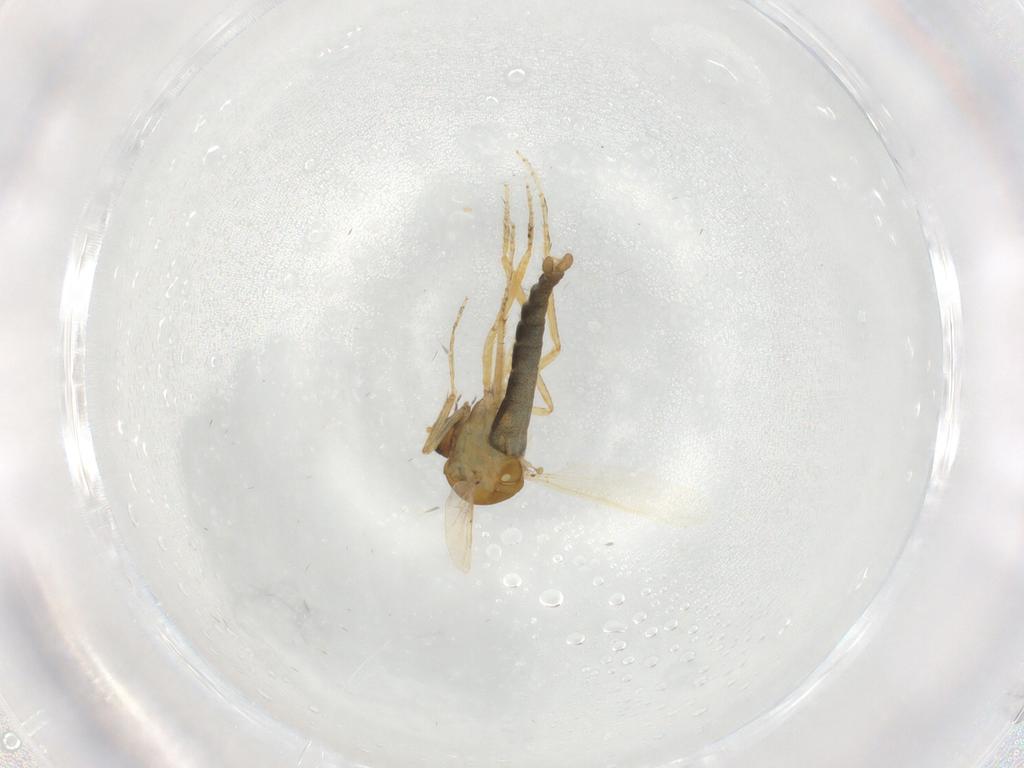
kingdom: Animalia
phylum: Arthropoda
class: Insecta
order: Diptera
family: Ceratopogonidae
